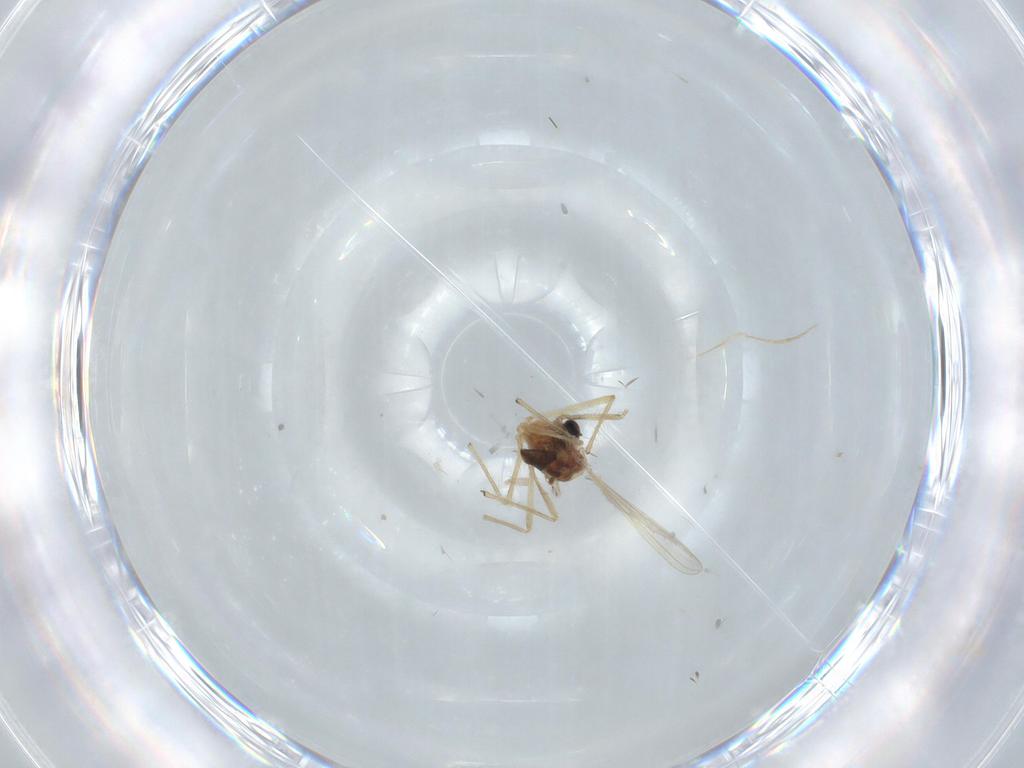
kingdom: Animalia
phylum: Arthropoda
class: Insecta
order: Diptera
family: Chironomidae
